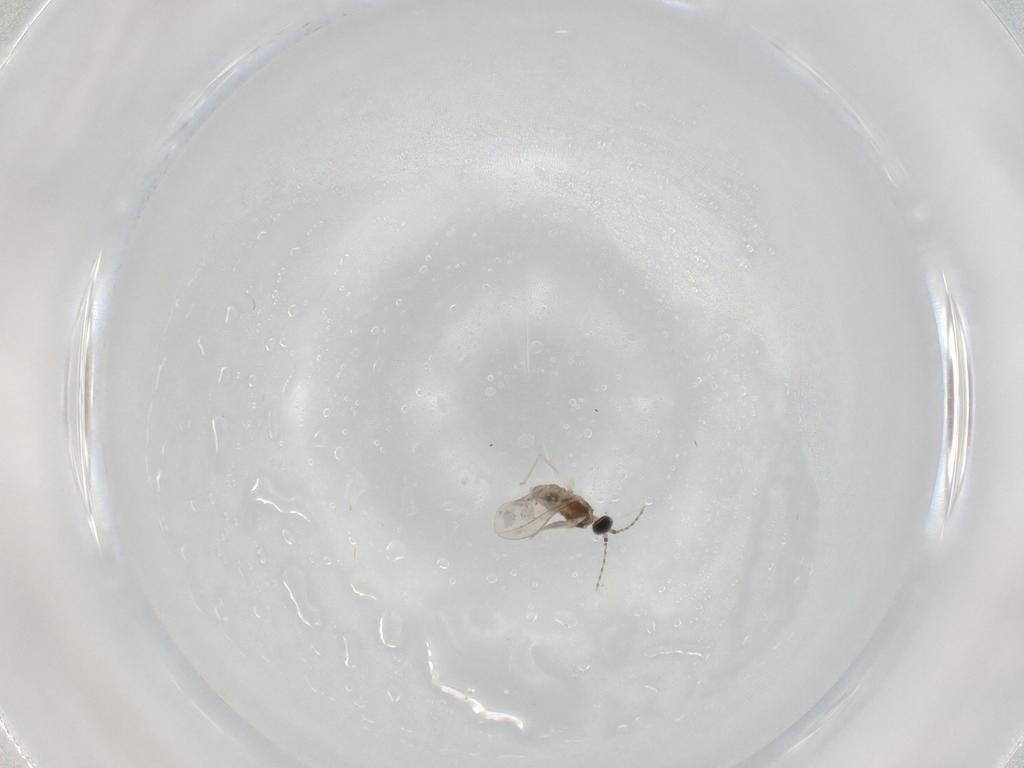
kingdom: Animalia
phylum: Arthropoda
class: Insecta
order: Diptera
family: Cecidomyiidae
